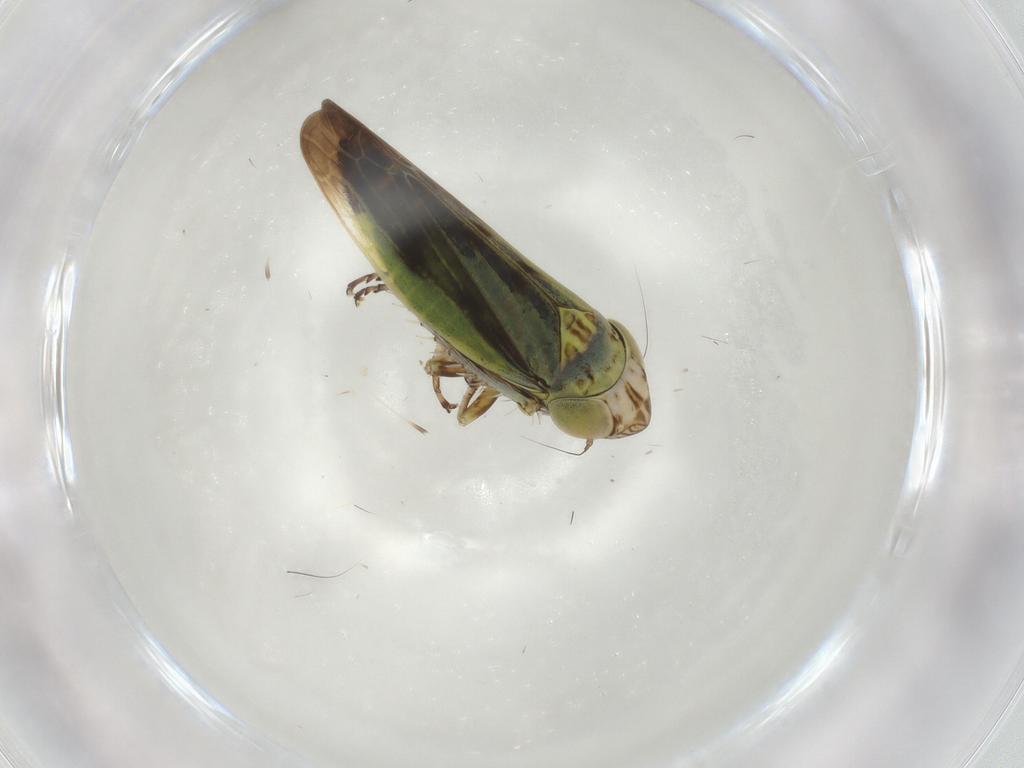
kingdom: Animalia
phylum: Arthropoda
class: Insecta
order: Hemiptera
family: Cicadellidae
